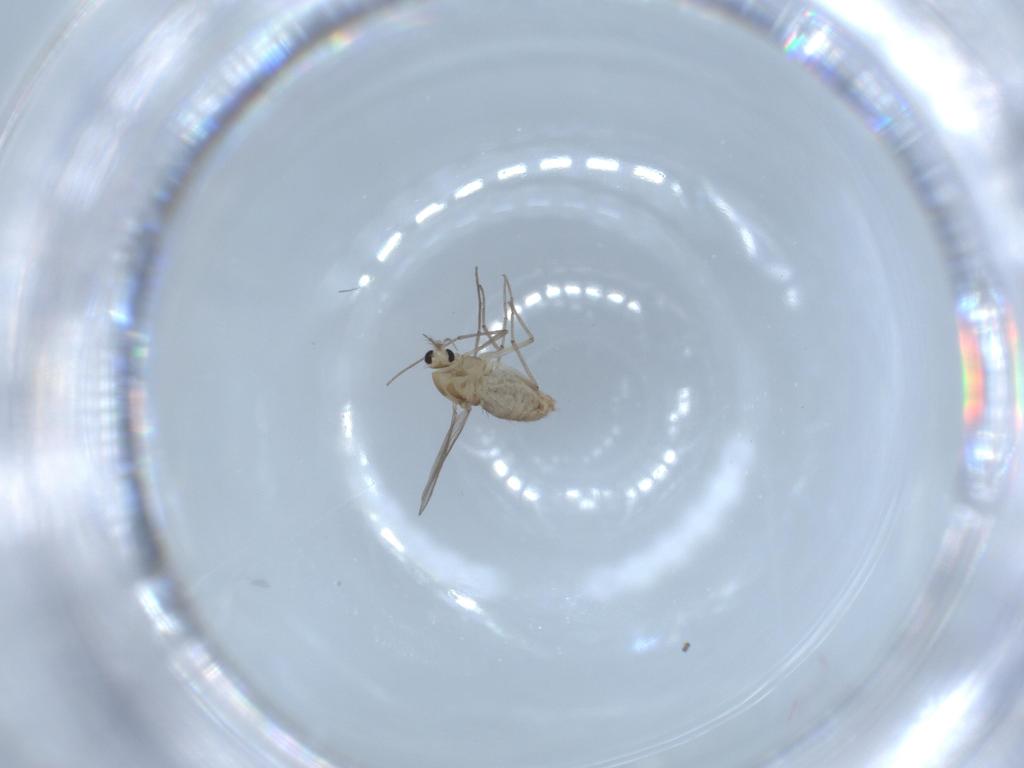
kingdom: Animalia
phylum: Arthropoda
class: Insecta
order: Diptera
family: Chironomidae
